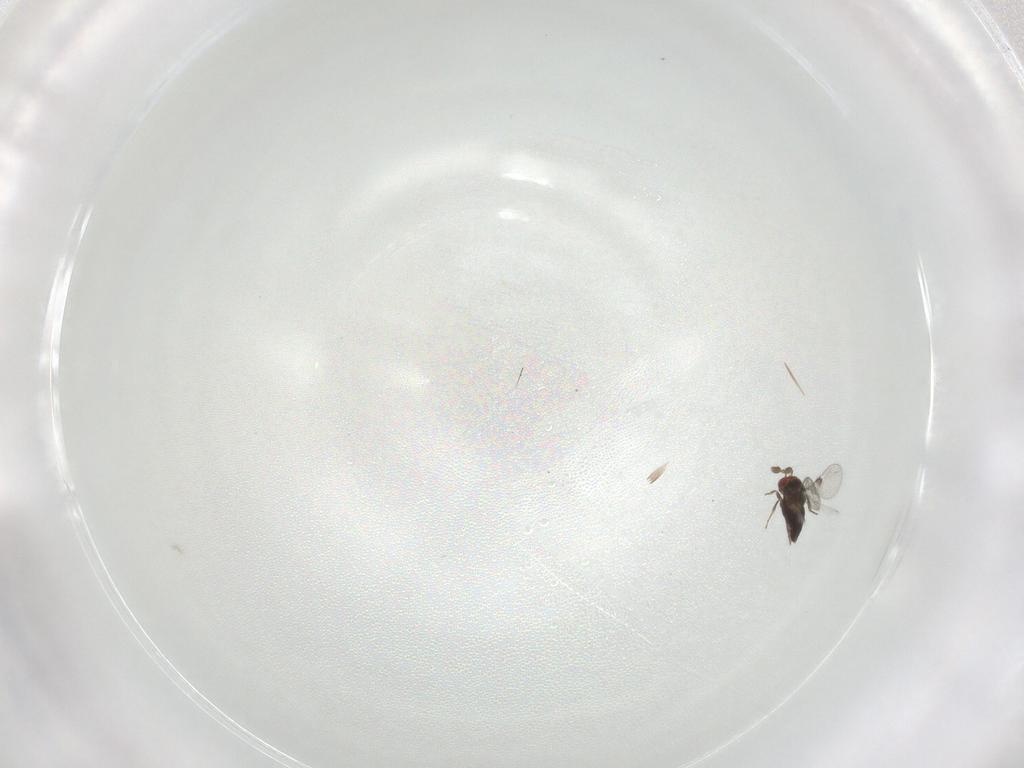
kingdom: Animalia
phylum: Arthropoda
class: Insecta
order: Hymenoptera
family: Trichogrammatidae
